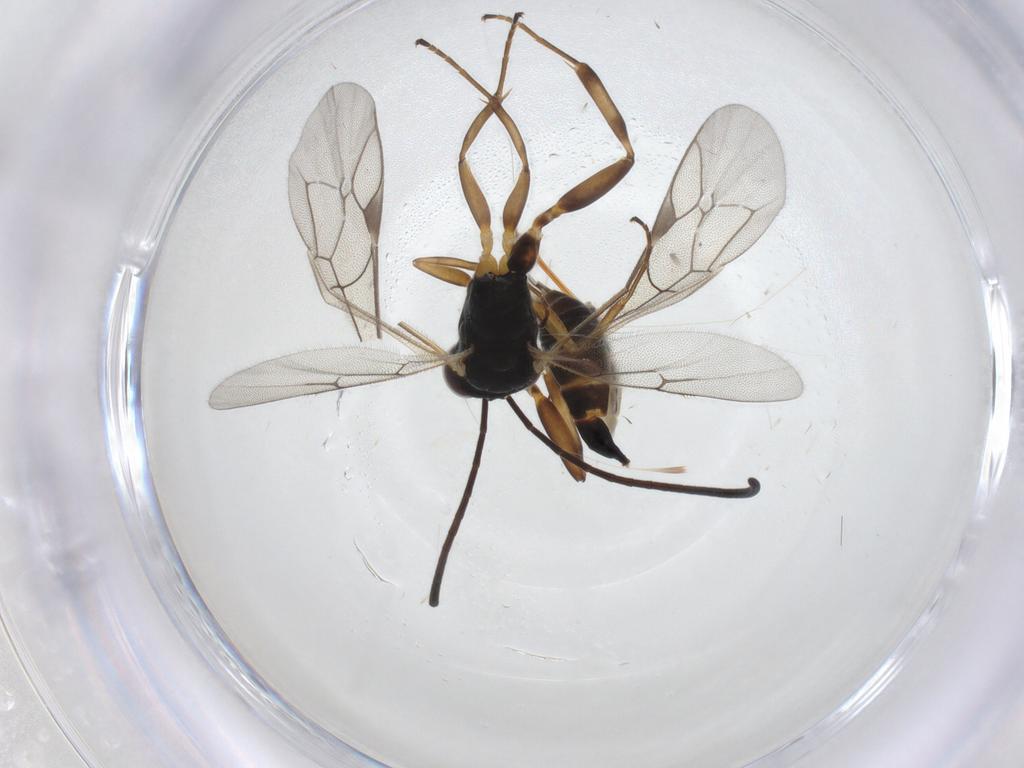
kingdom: Animalia
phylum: Arthropoda
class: Insecta
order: Hymenoptera
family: Ichneumonidae
